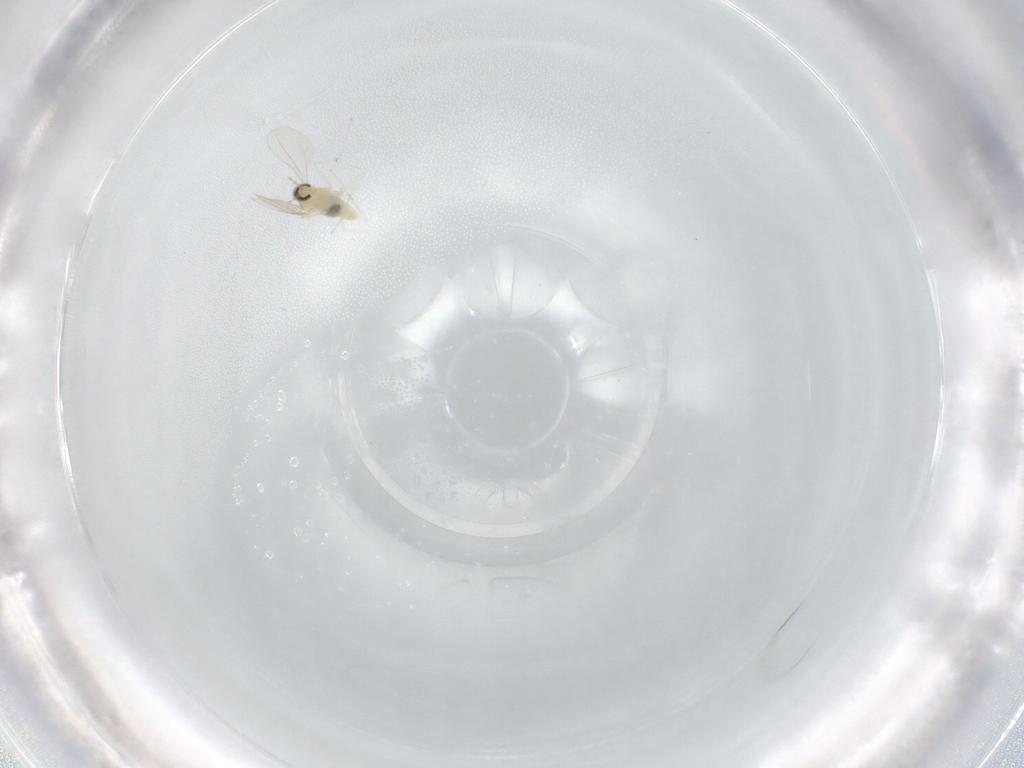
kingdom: Animalia
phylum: Arthropoda
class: Insecta
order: Diptera
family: Cecidomyiidae
